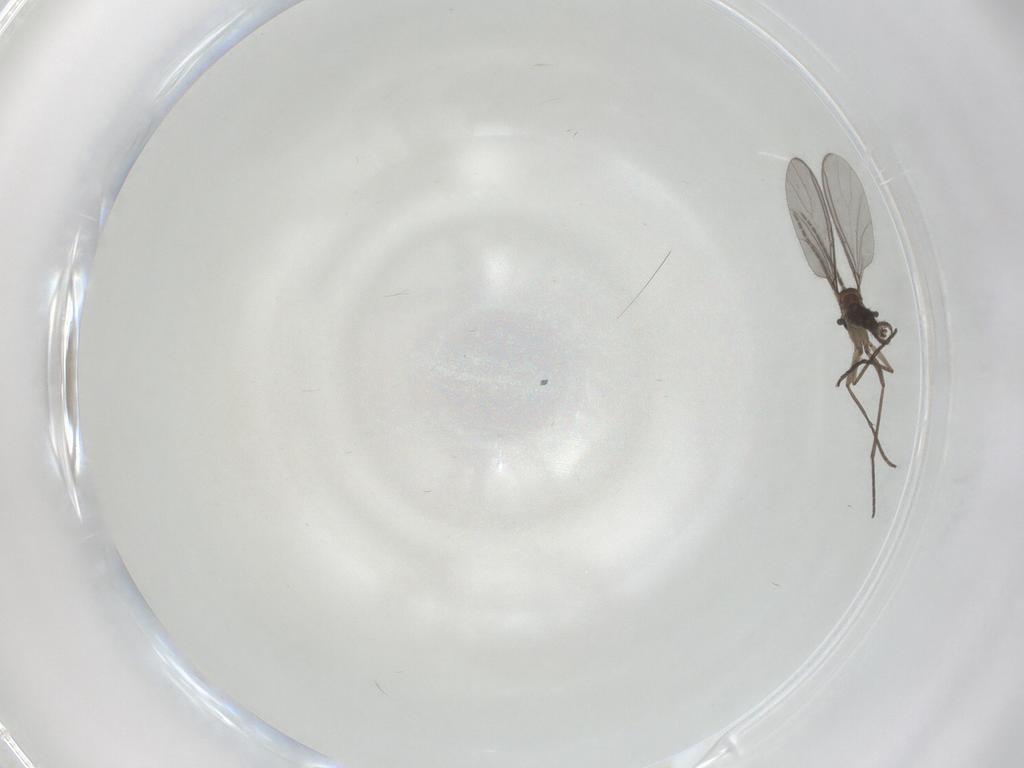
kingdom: Animalia
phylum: Arthropoda
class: Insecta
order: Diptera
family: Sciaridae
